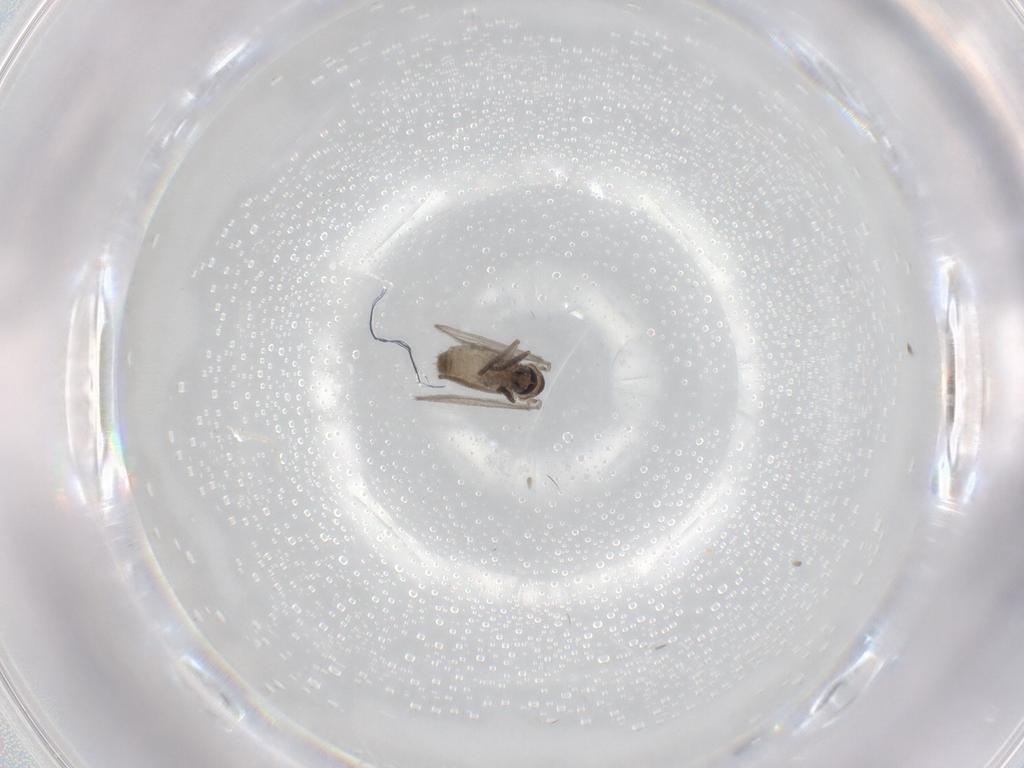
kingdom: Animalia
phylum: Arthropoda
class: Insecta
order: Diptera
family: Psychodidae
